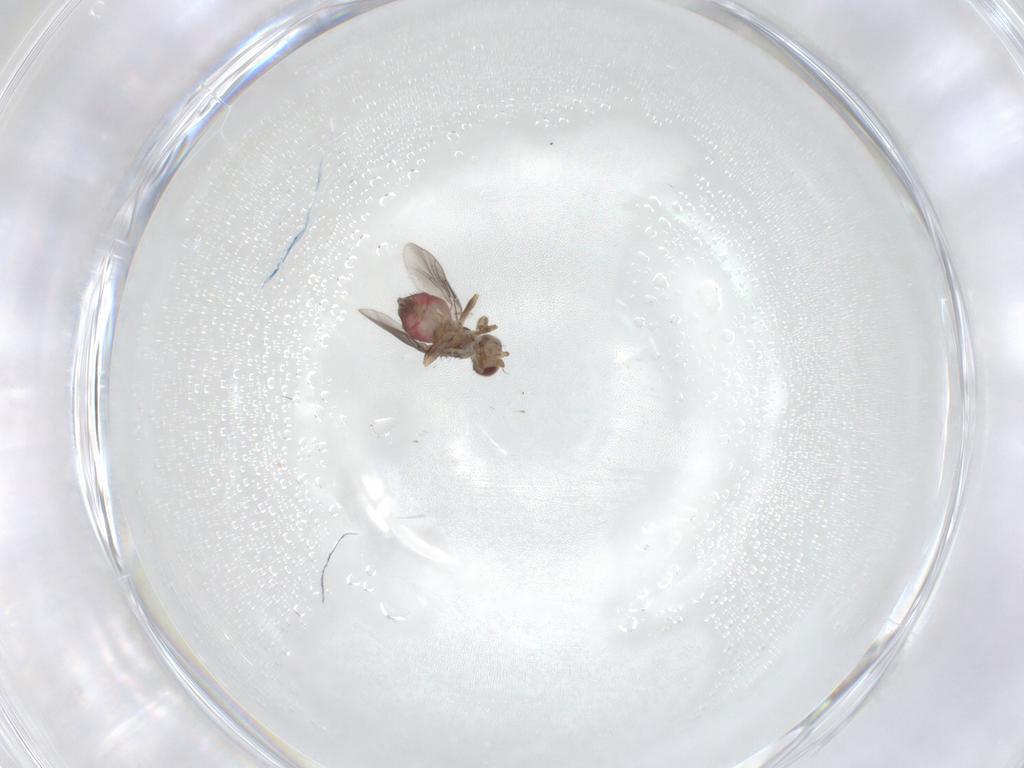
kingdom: Animalia
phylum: Arthropoda
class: Insecta
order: Diptera
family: Chloropidae
